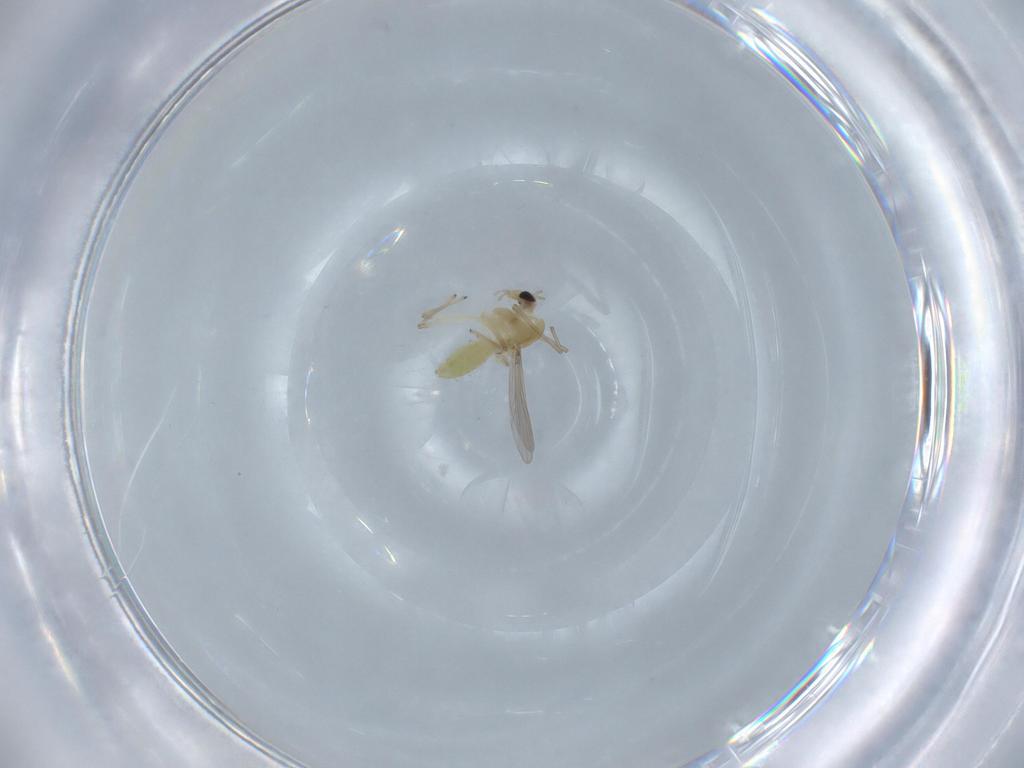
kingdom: Animalia
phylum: Arthropoda
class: Insecta
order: Diptera
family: Chironomidae
